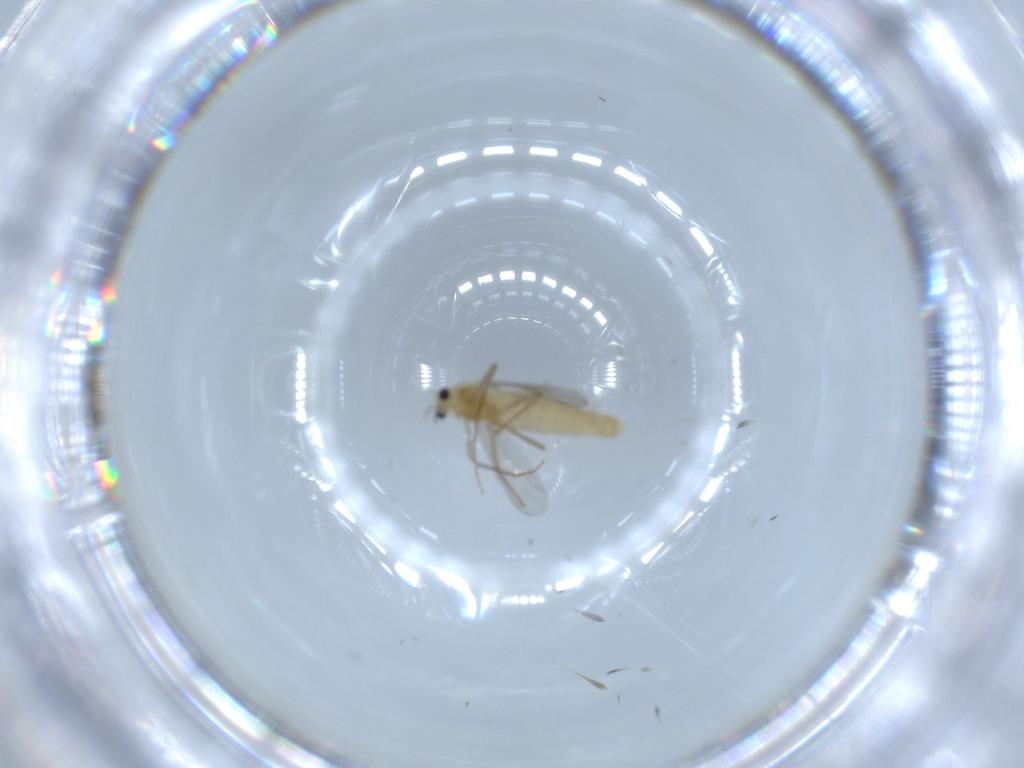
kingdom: Animalia
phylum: Arthropoda
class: Insecta
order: Diptera
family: Chironomidae
